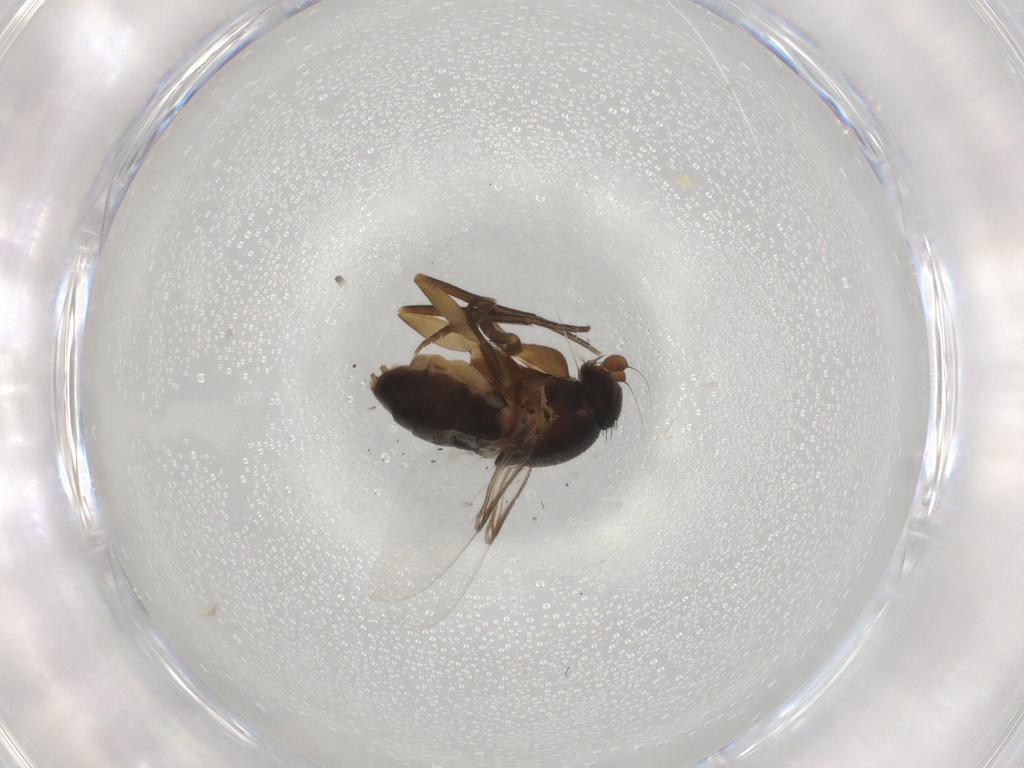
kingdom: Animalia
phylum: Arthropoda
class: Insecta
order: Diptera
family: Phoridae
